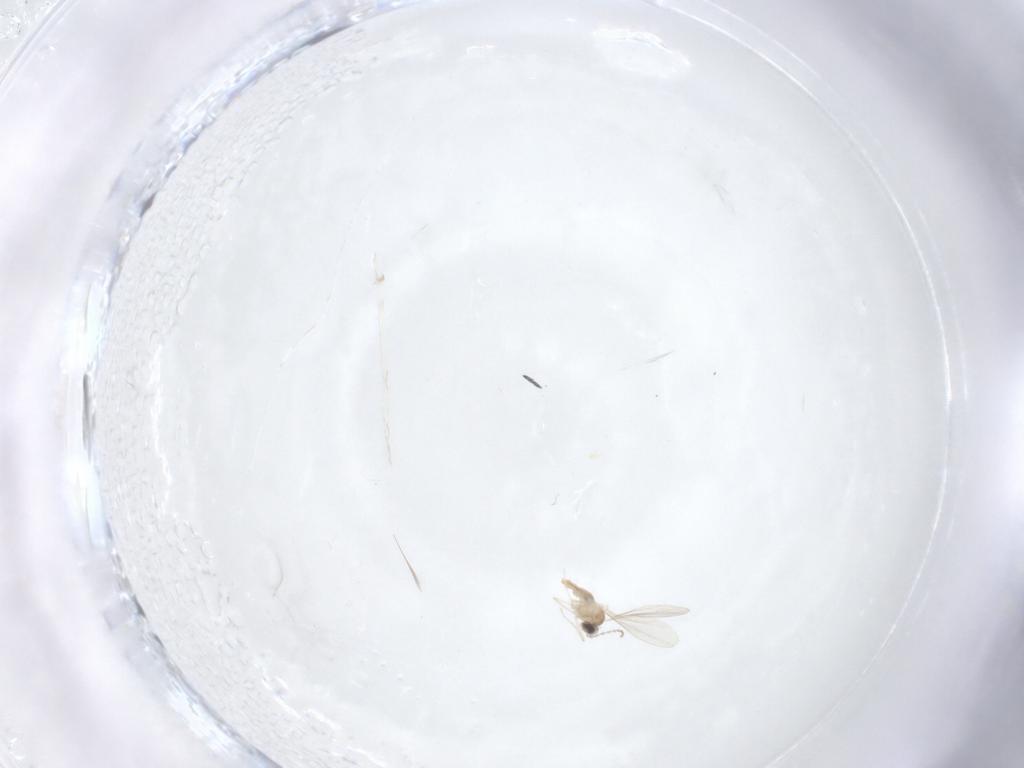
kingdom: Animalia
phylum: Arthropoda
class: Insecta
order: Diptera
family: Cecidomyiidae
